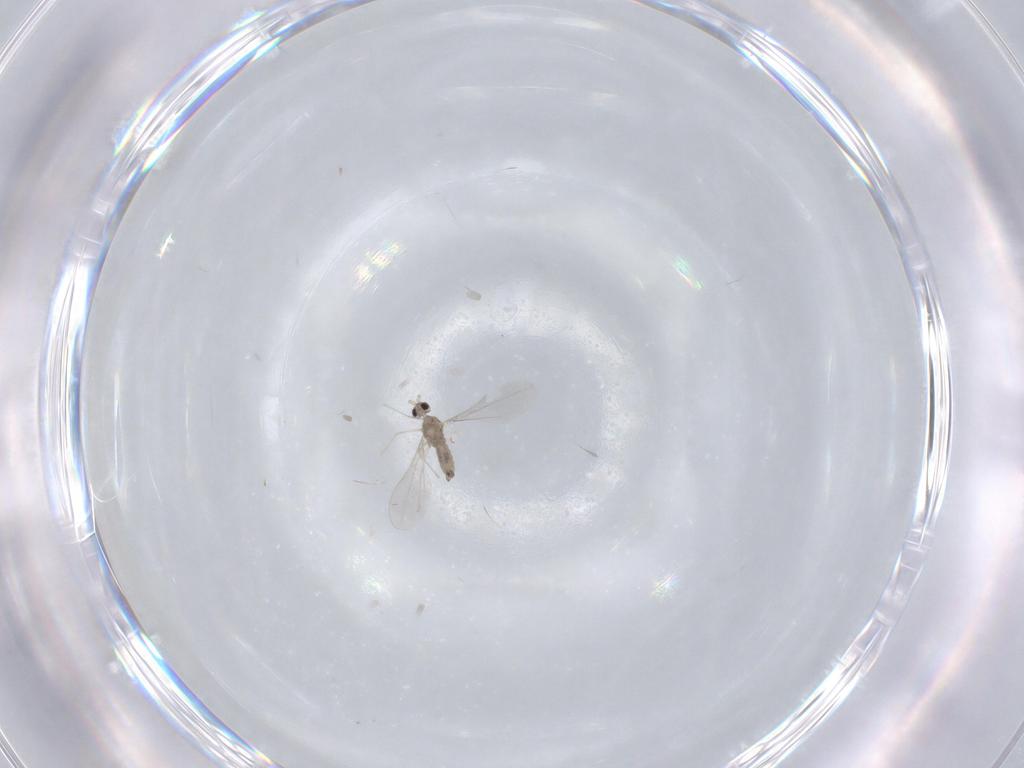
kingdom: Animalia
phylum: Arthropoda
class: Insecta
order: Diptera
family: Cecidomyiidae
